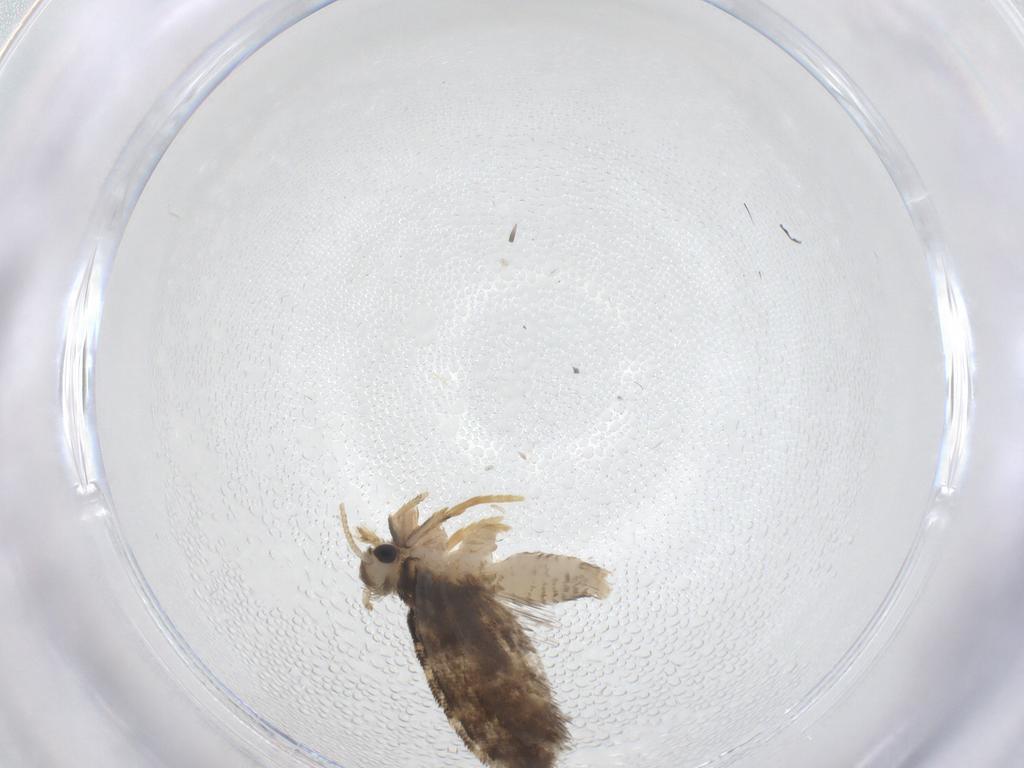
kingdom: Animalia
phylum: Arthropoda
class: Insecta
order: Lepidoptera
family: Psychidae
